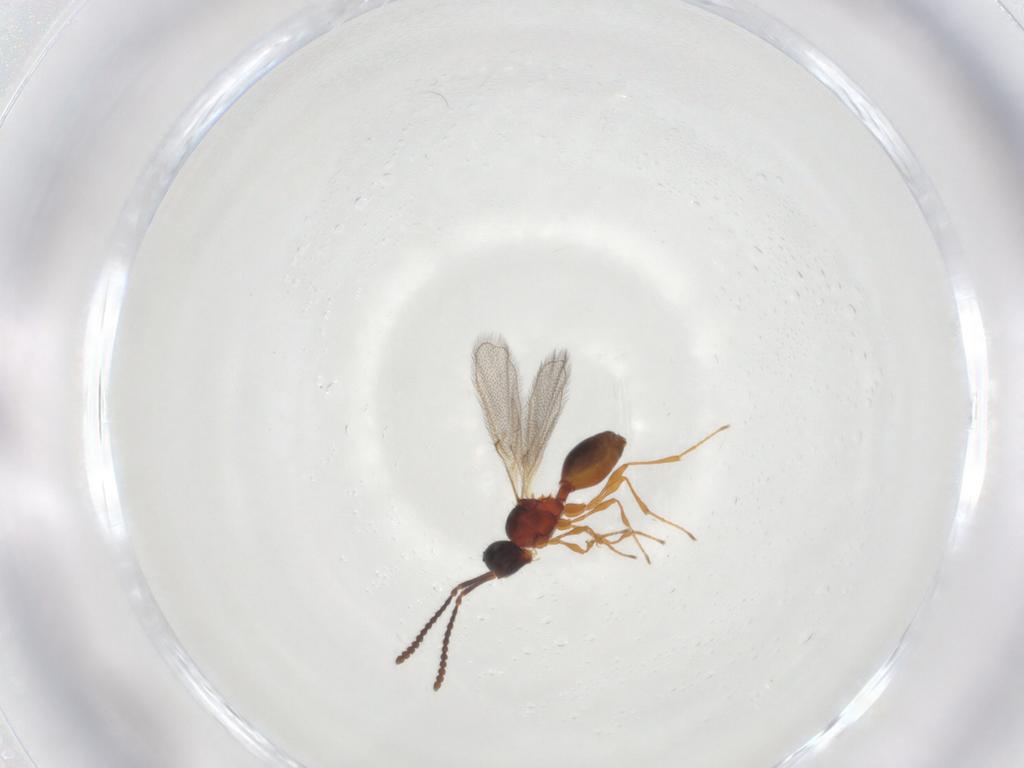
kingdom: Animalia
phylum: Arthropoda
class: Insecta
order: Hymenoptera
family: Diapriidae
